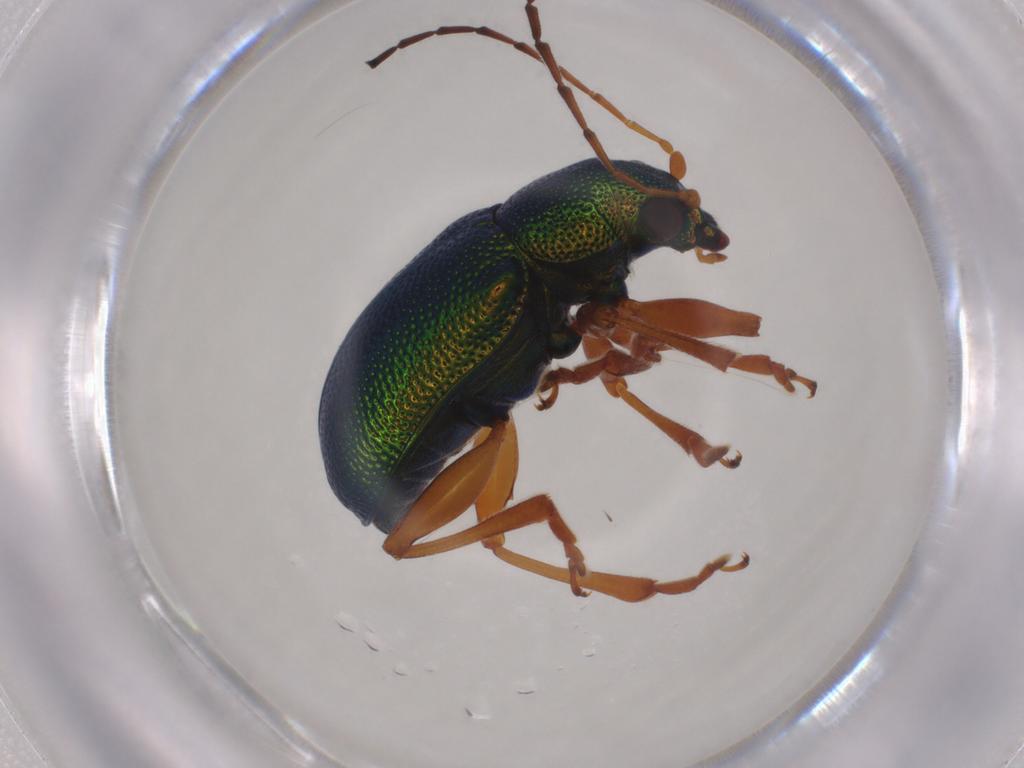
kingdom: Animalia
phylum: Arthropoda
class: Insecta
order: Coleoptera
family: Chrysomelidae
